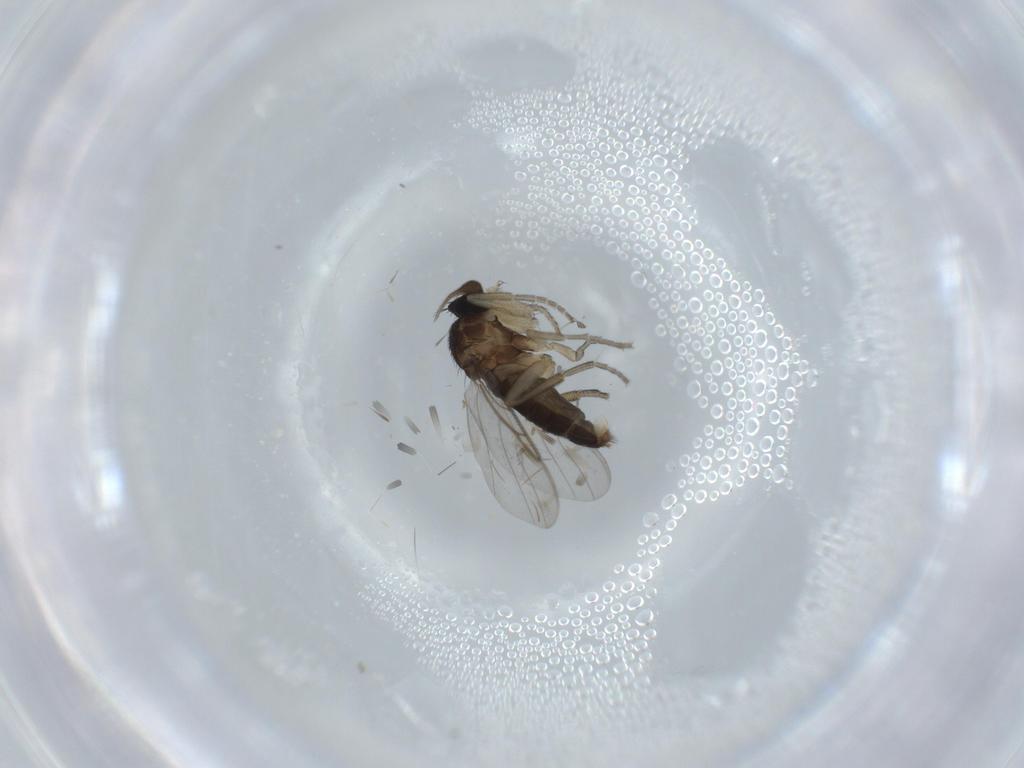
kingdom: Animalia
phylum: Arthropoda
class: Insecta
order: Diptera
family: Phoridae
